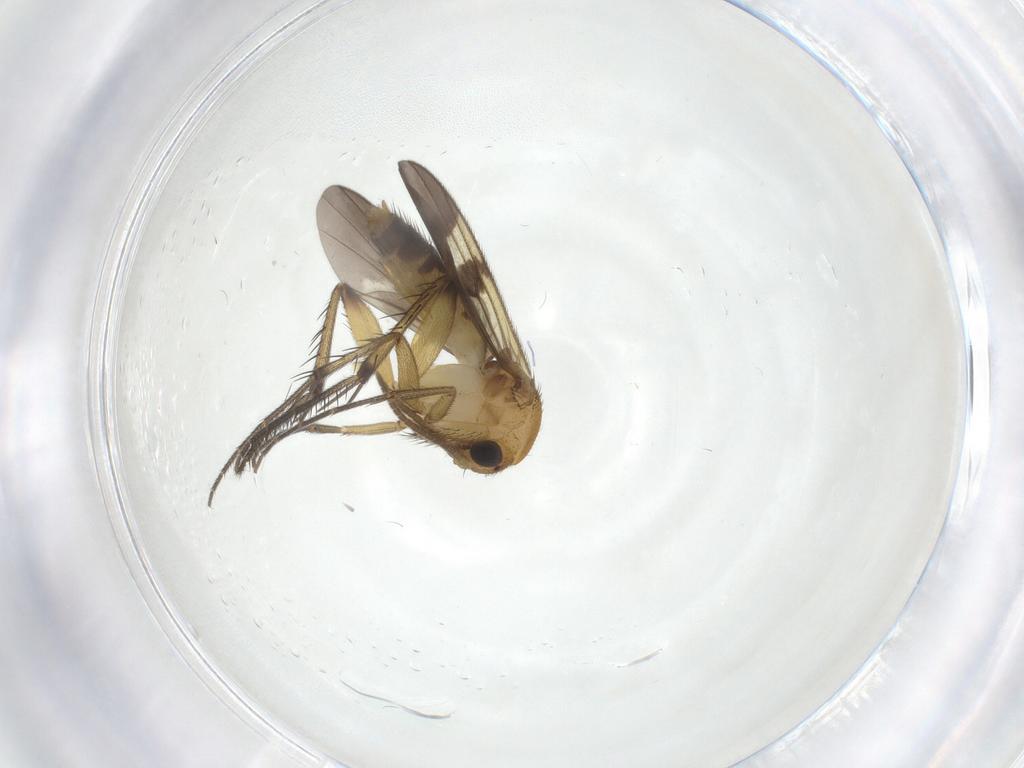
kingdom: Animalia
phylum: Arthropoda
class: Insecta
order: Diptera
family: Mycetophilidae
